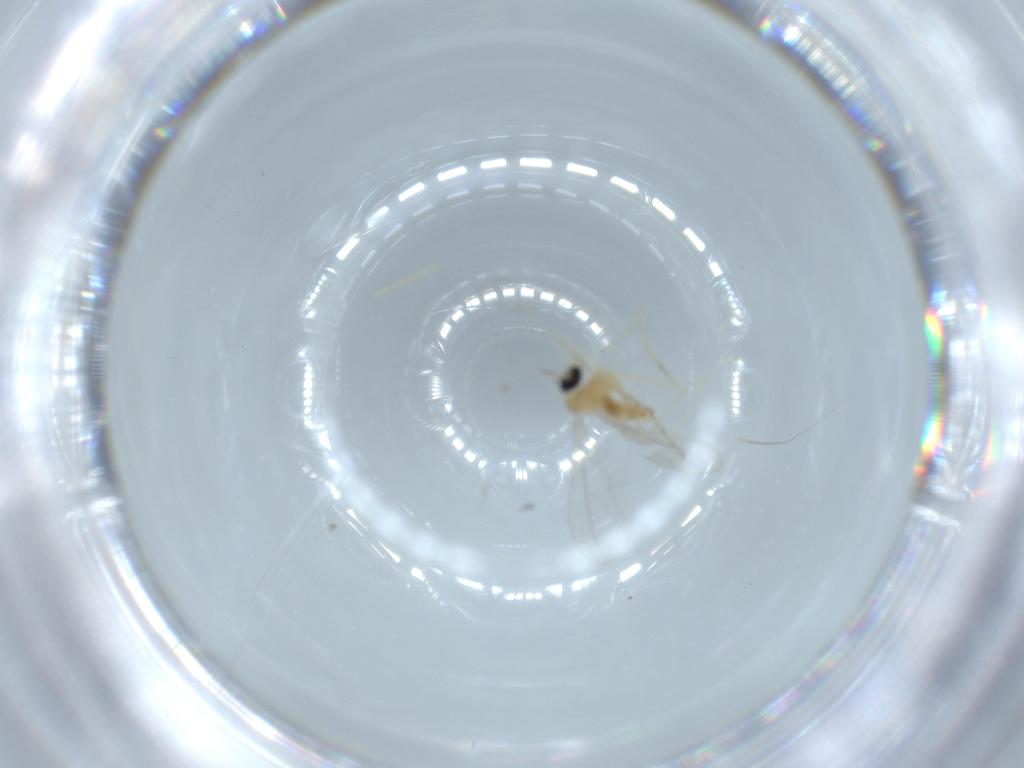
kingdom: Animalia
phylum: Arthropoda
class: Insecta
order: Diptera
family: Cecidomyiidae
